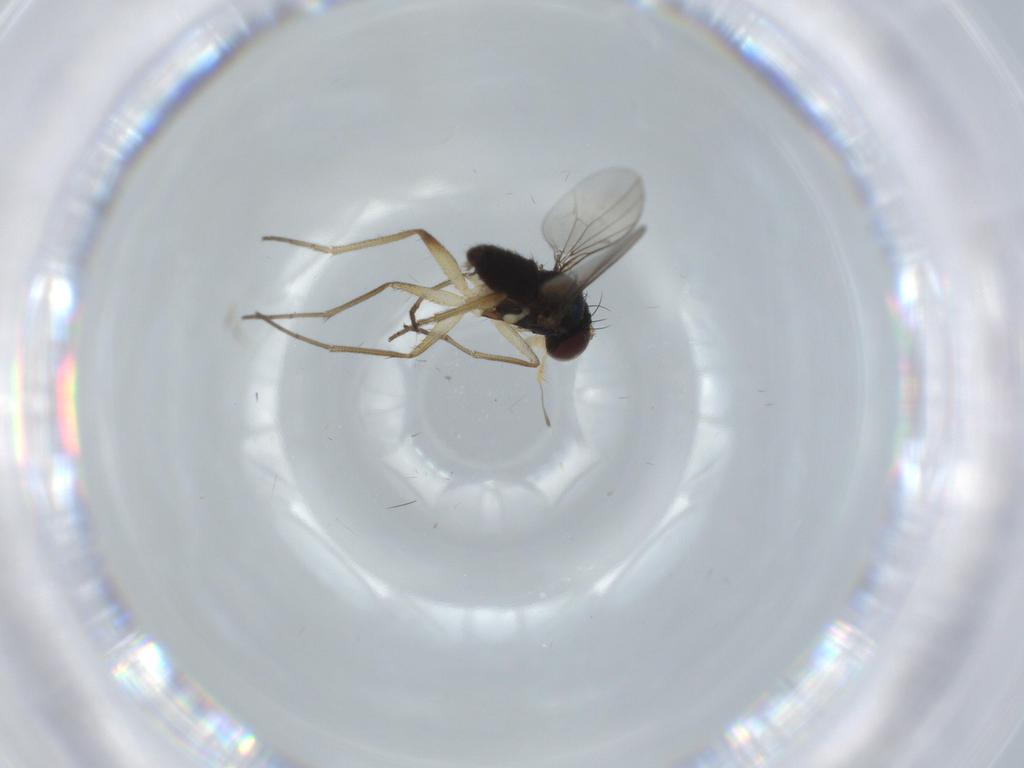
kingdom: Animalia
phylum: Arthropoda
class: Insecta
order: Diptera
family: Dolichopodidae
